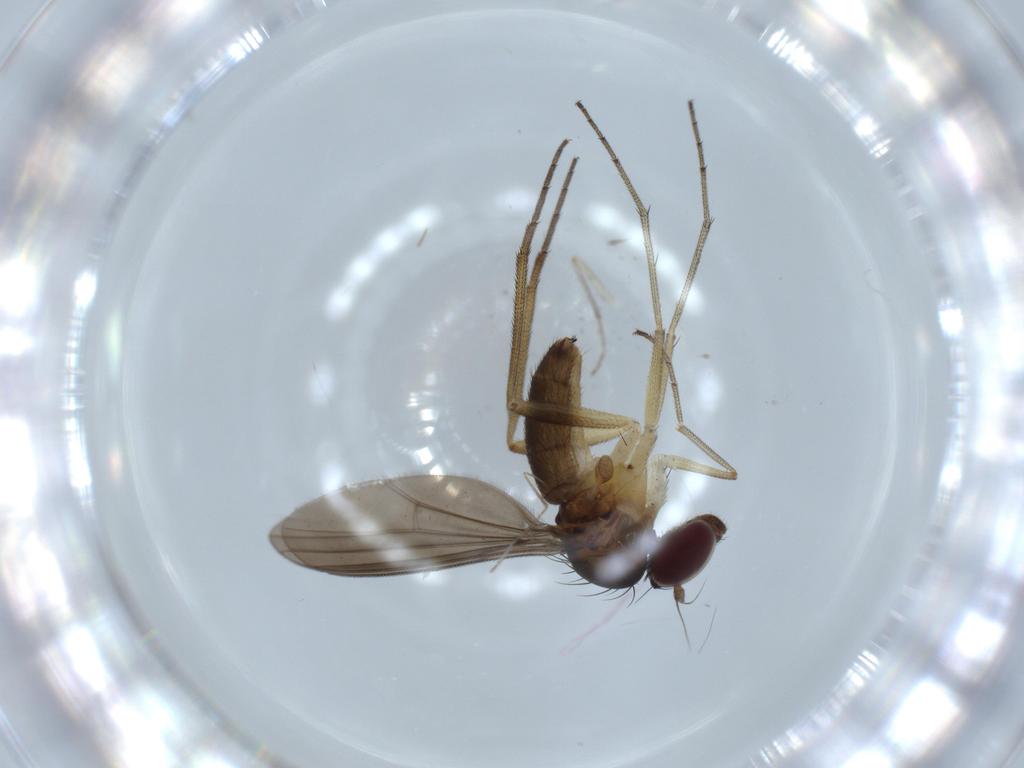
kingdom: Animalia
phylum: Arthropoda
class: Insecta
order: Diptera
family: Dolichopodidae
